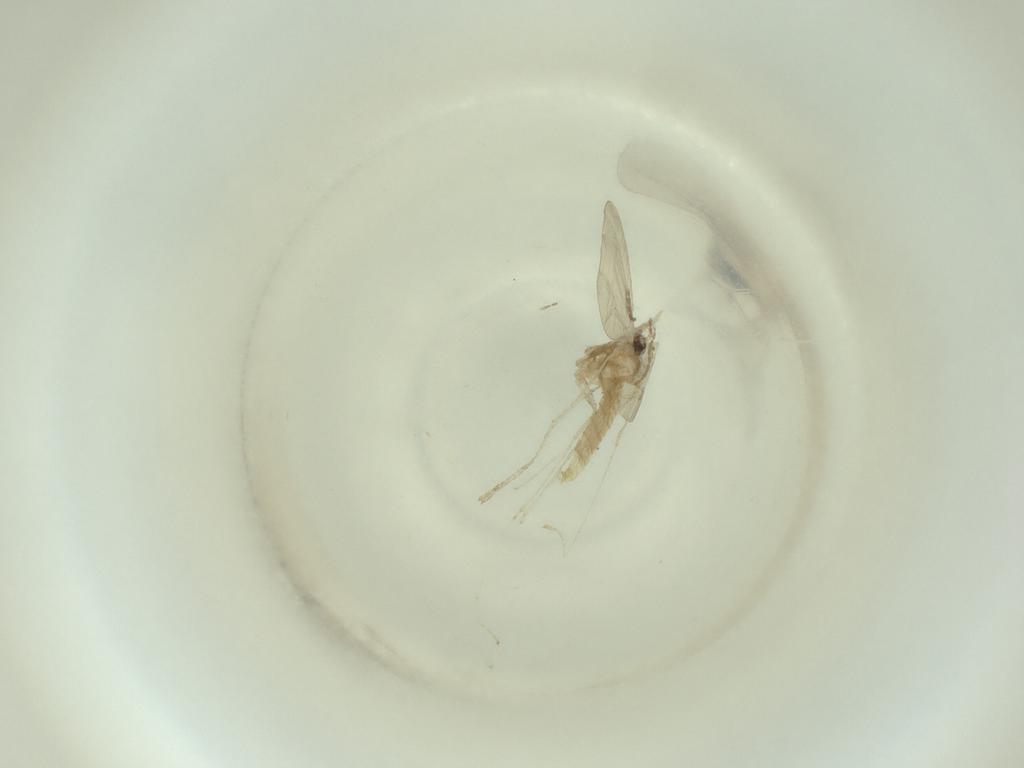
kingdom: Animalia
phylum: Arthropoda
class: Insecta
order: Diptera
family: Cecidomyiidae
